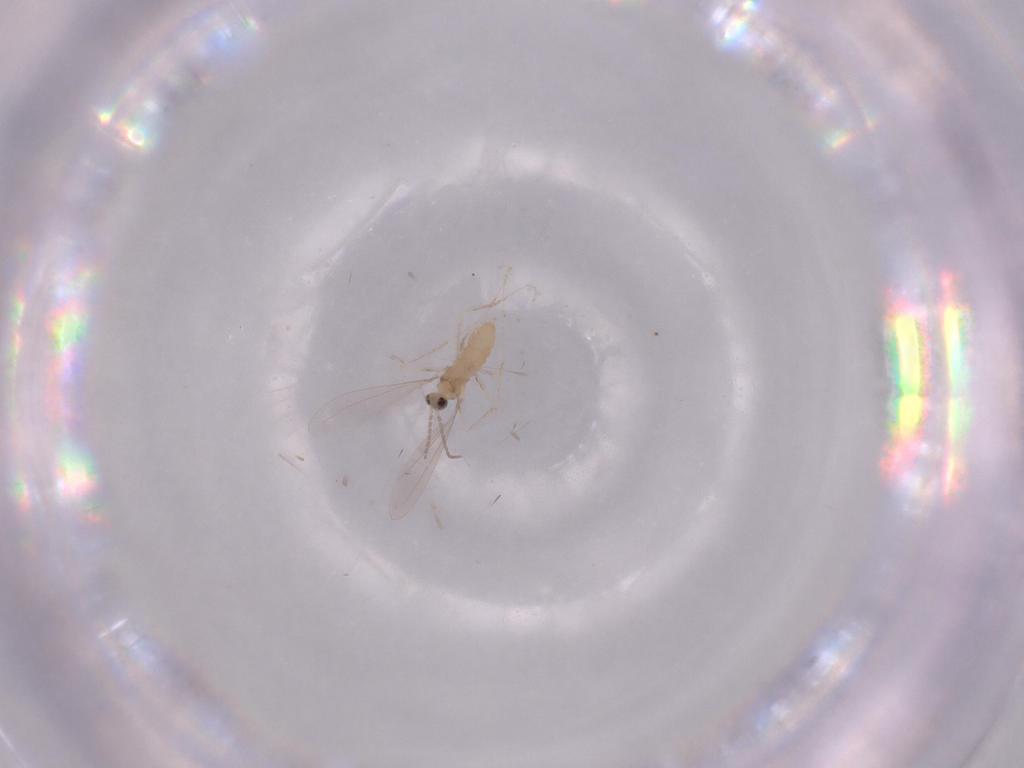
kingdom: Animalia
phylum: Arthropoda
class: Insecta
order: Diptera
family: Cecidomyiidae
